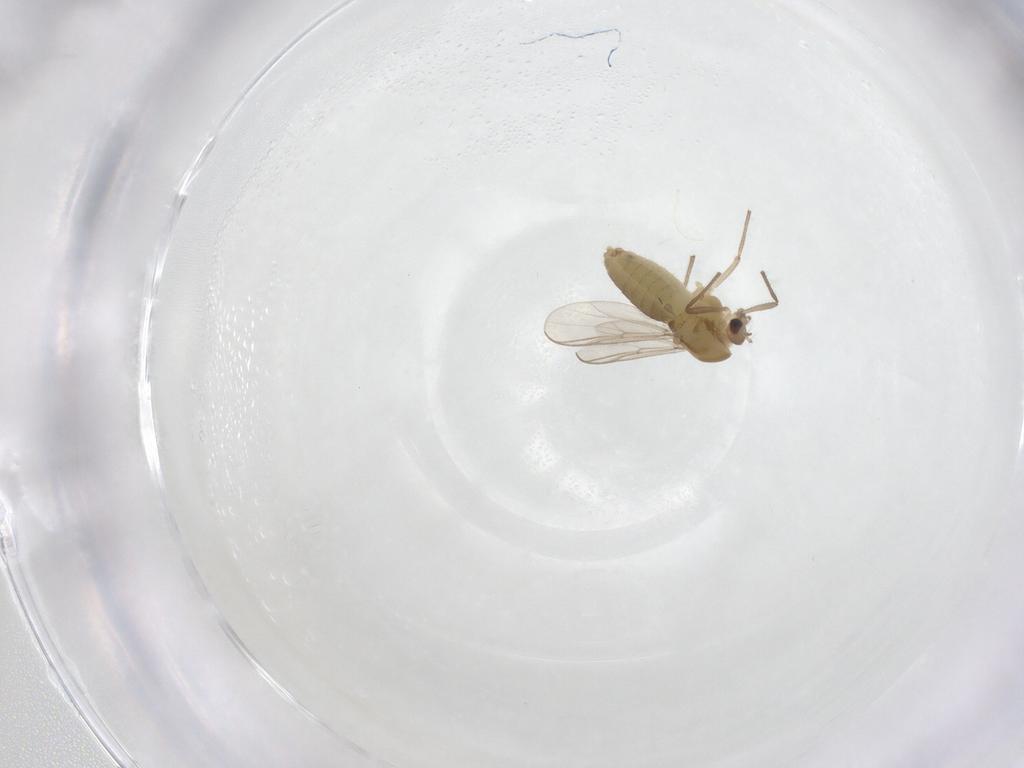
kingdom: Animalia
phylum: Arthropoda
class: Insecta
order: Diptera
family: Chironomidae
